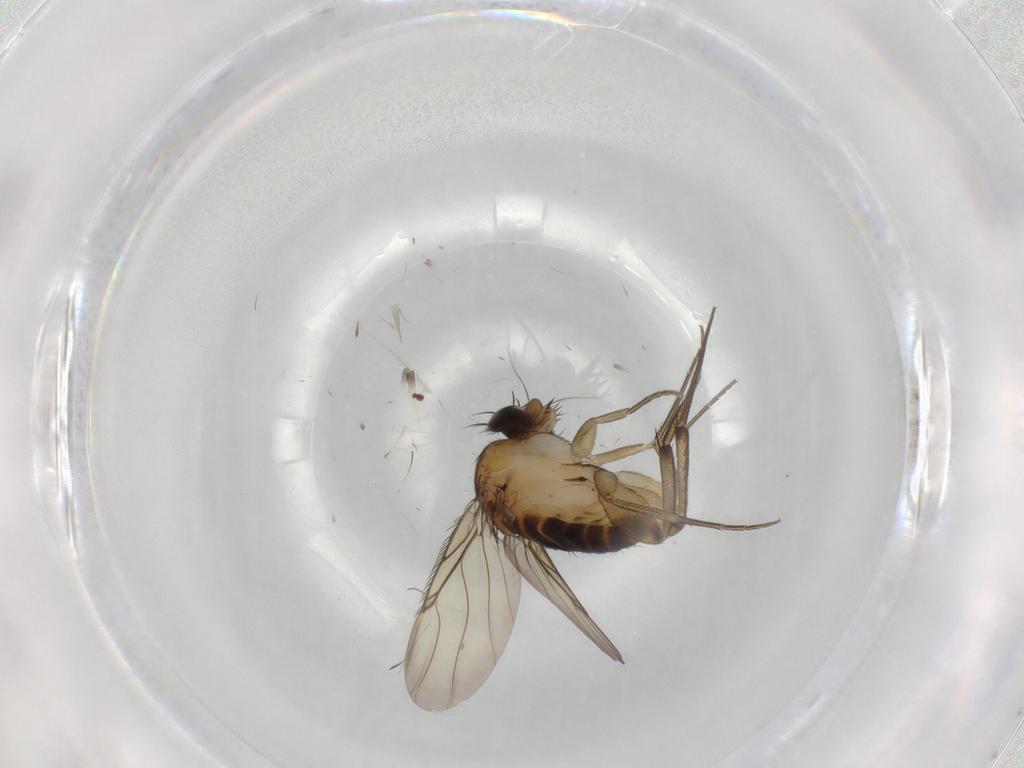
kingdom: Animalia
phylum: Arthropoda
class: Insecta
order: Diptera
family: Phoridae
